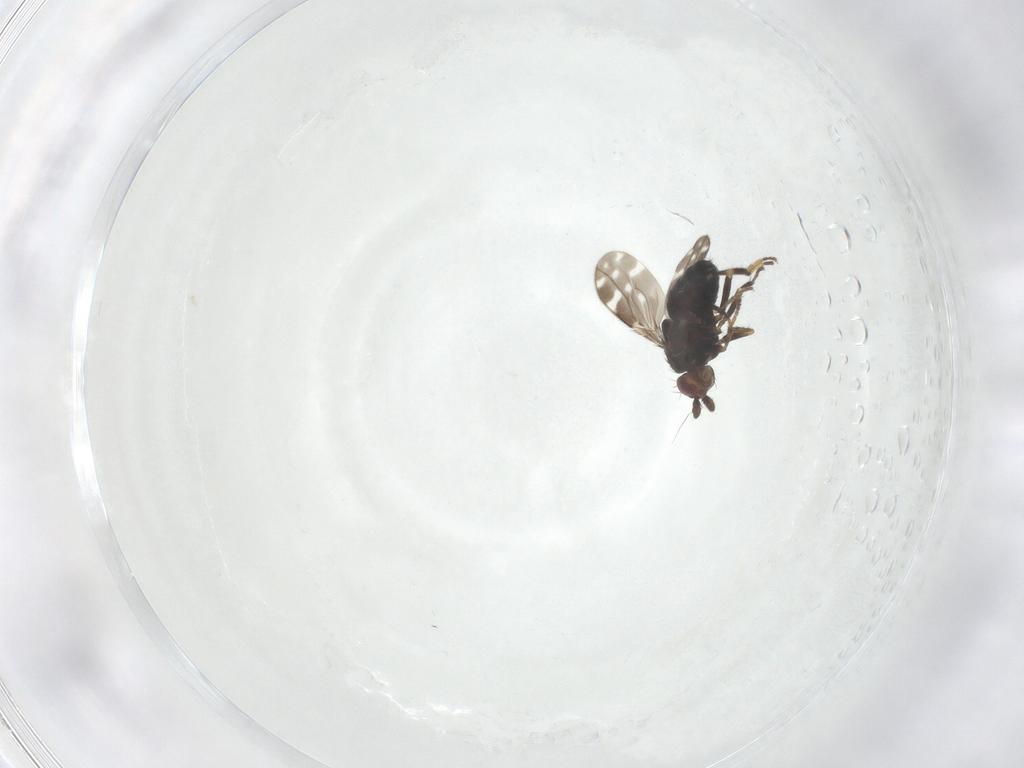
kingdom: Animalia
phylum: Arthropoda
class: Insecta
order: Diptera
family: Sphaeroceridae
